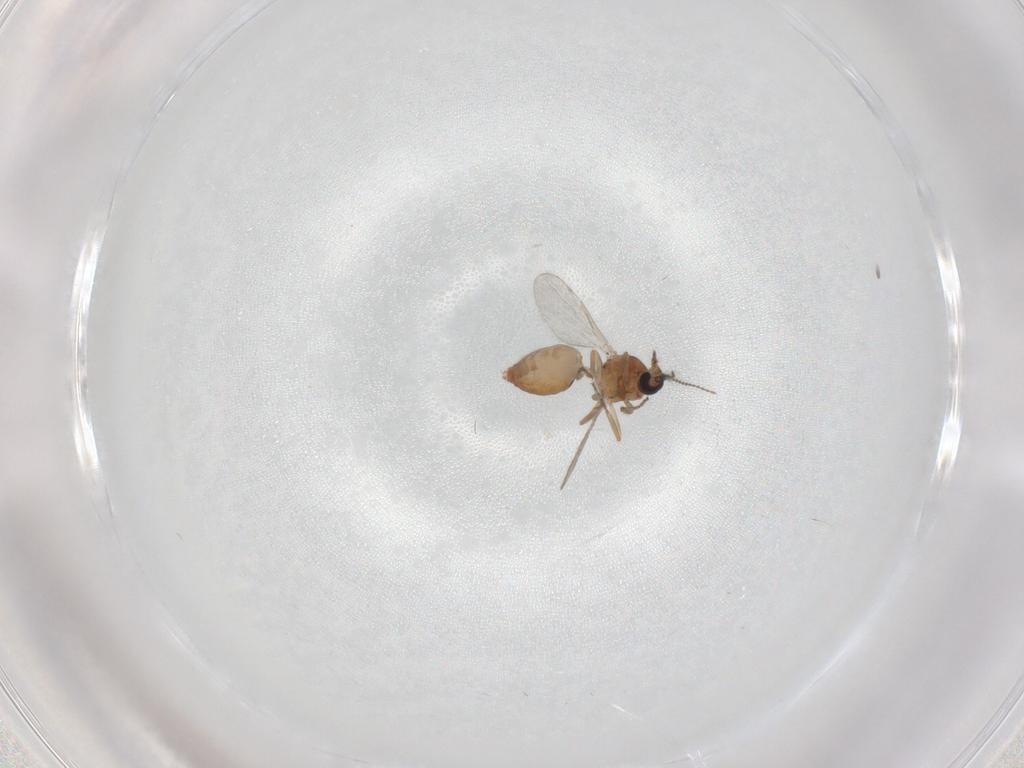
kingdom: Animalia
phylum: Arthropoda
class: Insecta
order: Diptera
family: Ceratopogonidae
